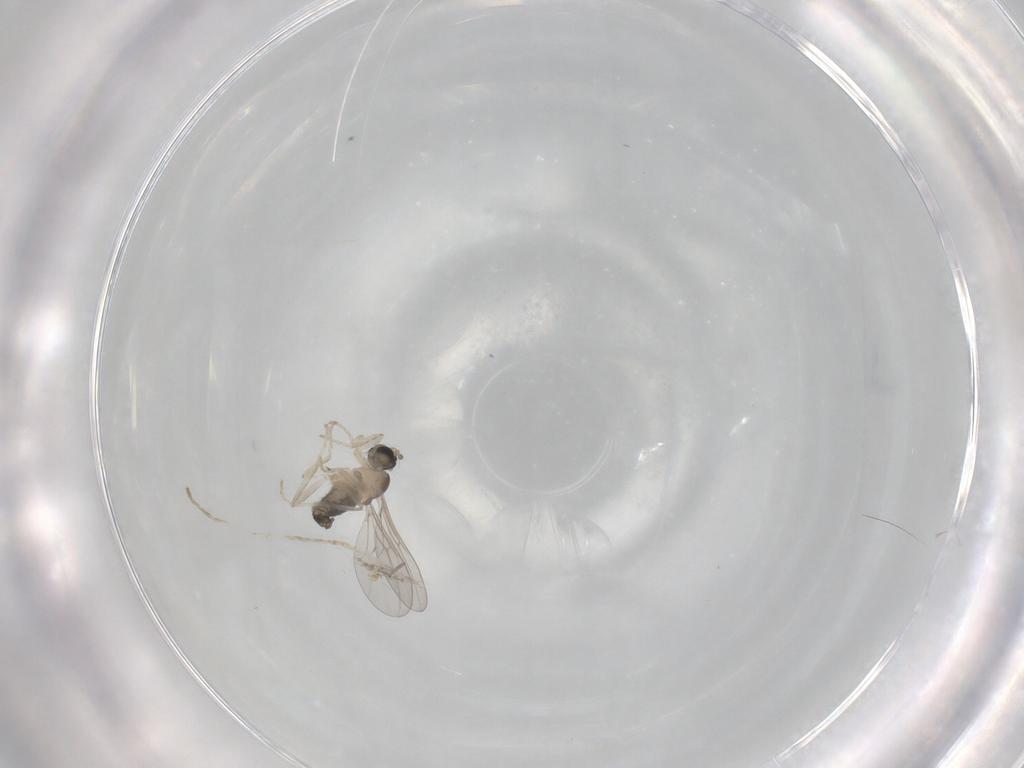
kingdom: Animalia
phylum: Arthropoda
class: Insecta
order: Diptera
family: Cecidomyiidae
